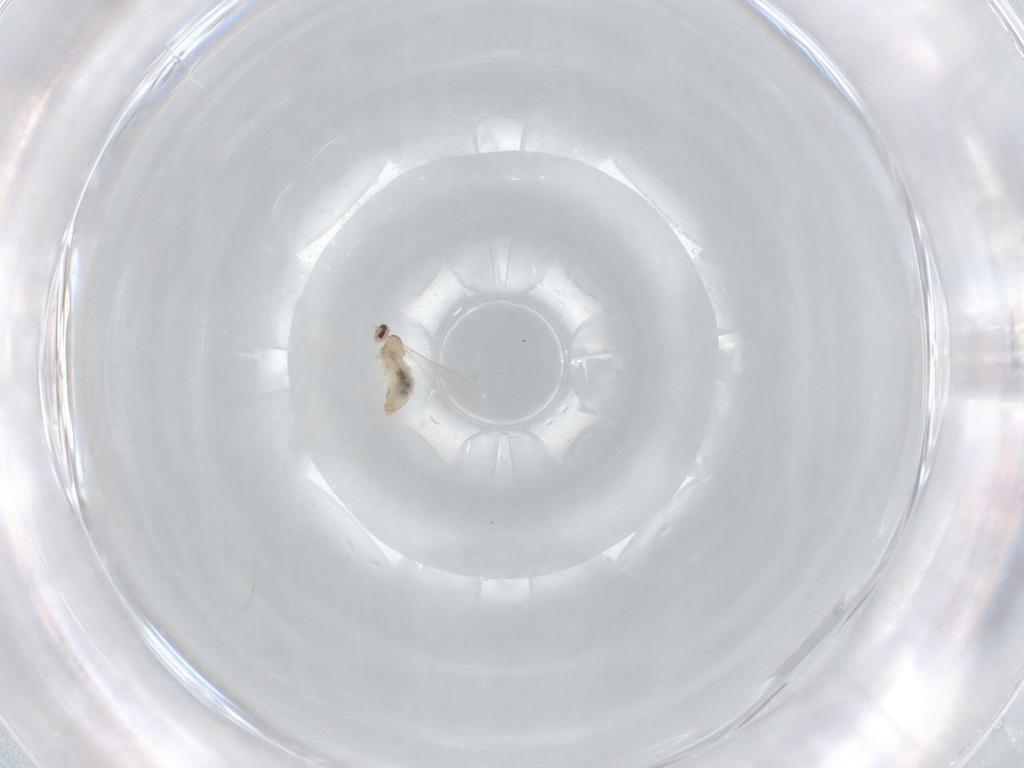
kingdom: Animalia
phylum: Arthropoda
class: Insecta
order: Diptera
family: Cecidomyiidae
